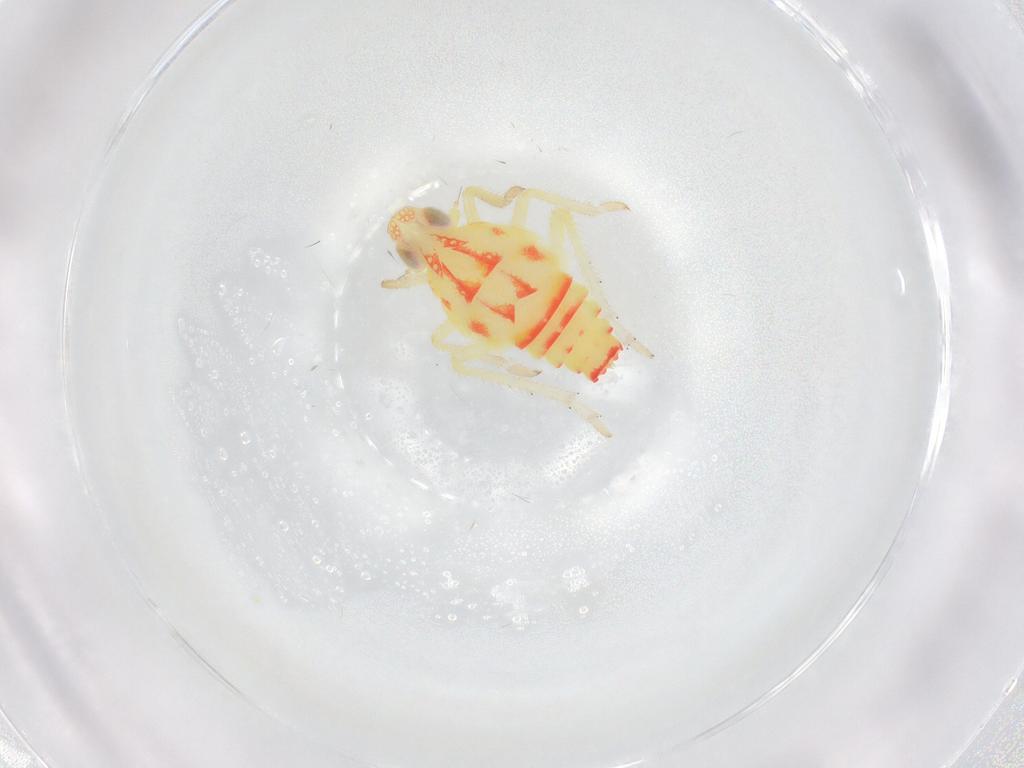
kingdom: Animalia
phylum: Arthropoda
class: Insecta
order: Hemiptera
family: Tropiduchidae
